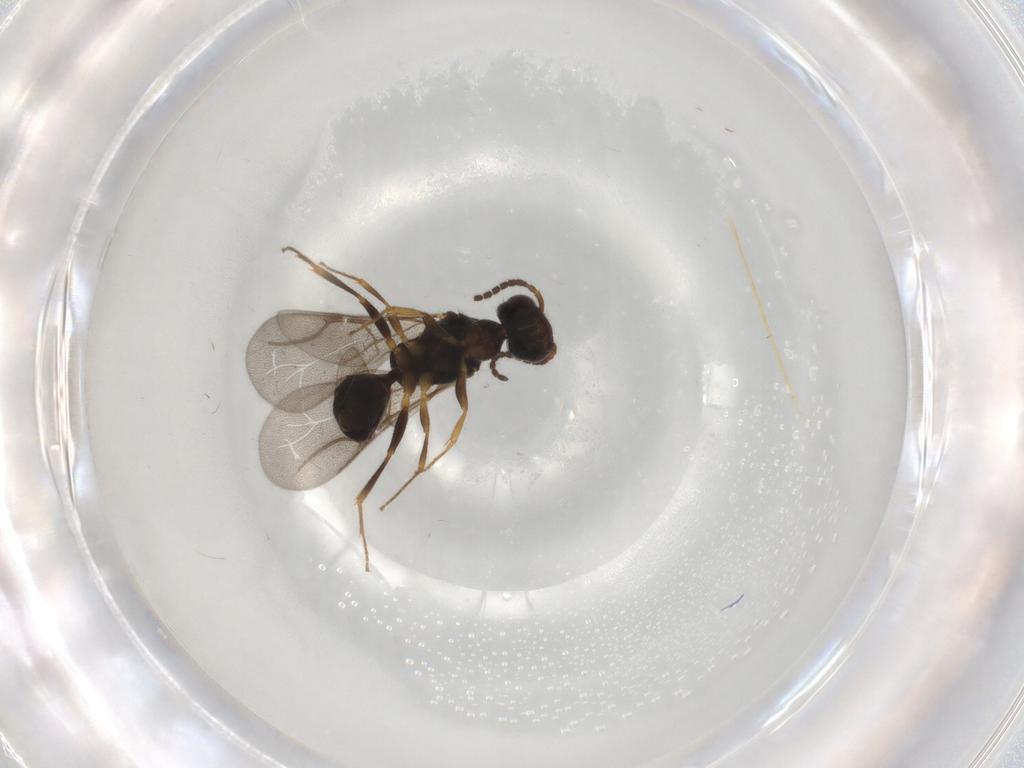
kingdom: Animalia
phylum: Arthropoda
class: Insecta
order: Hymenoptera
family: Bethylidae
